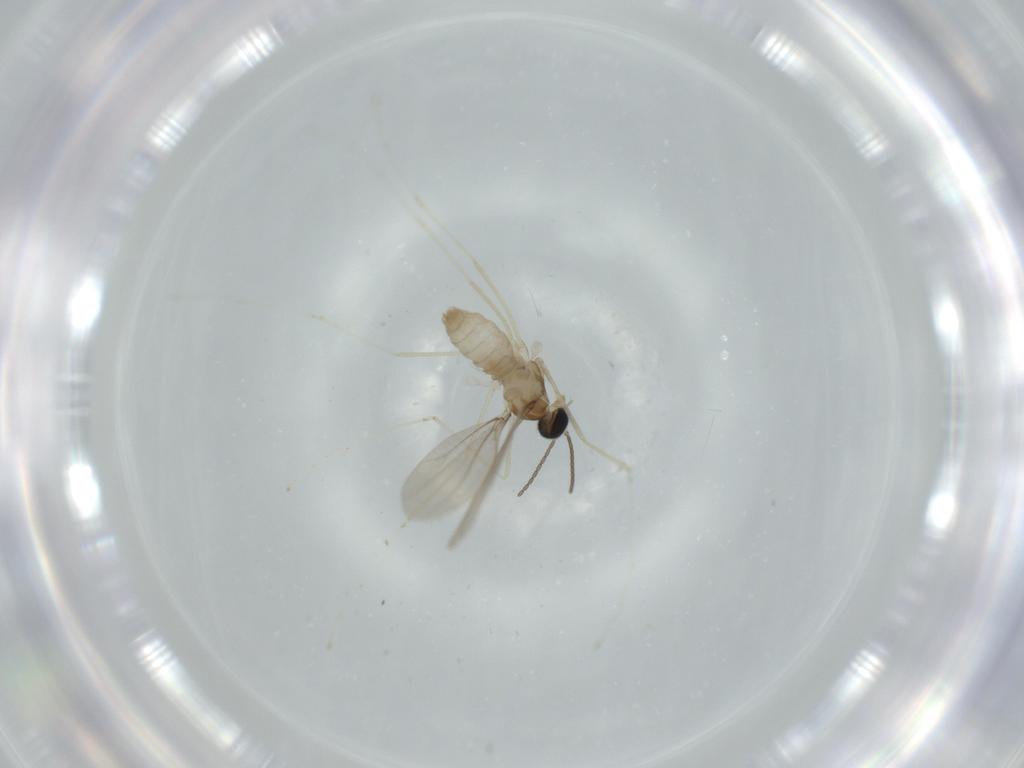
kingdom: Animalia
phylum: Arthropoda
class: Insecta
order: Diptera
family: Cecidomyiidae
